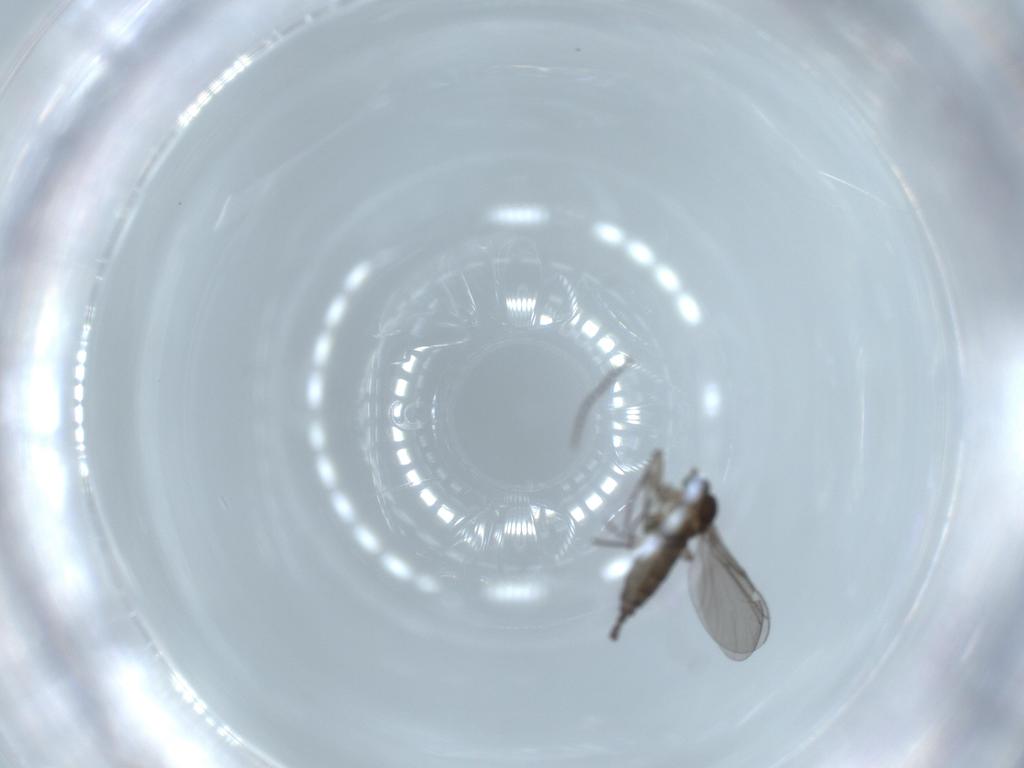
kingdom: Animalia
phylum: Arthropoda
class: Insecta
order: Diptera
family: Sciaridae
